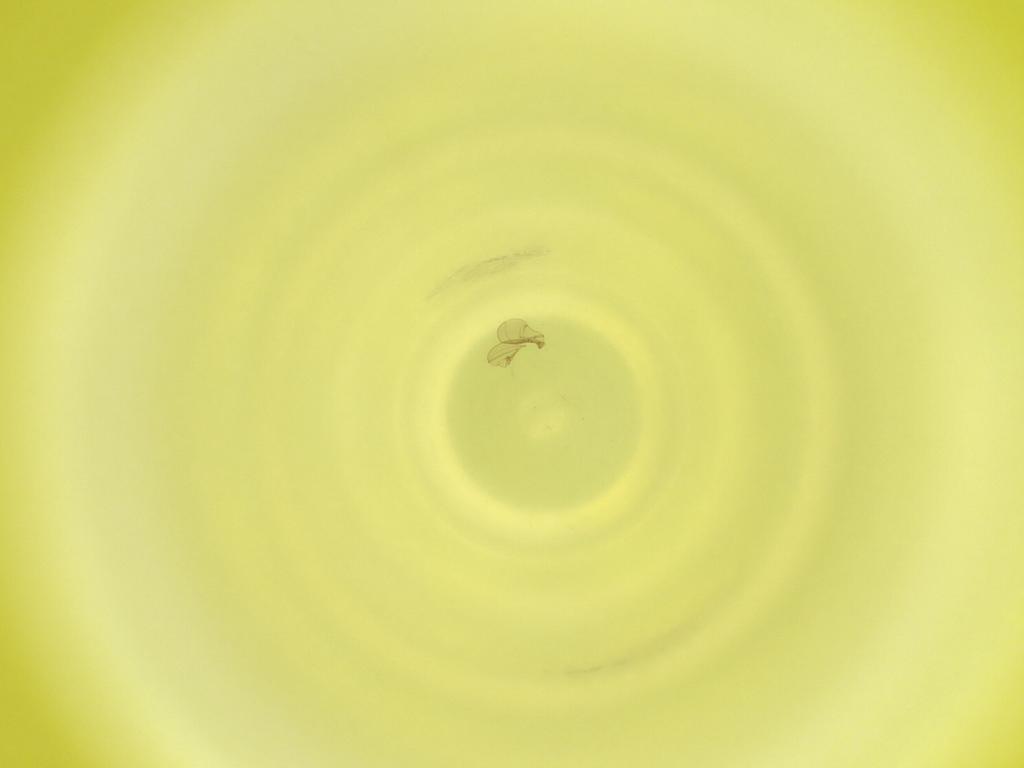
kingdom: Animalia
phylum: Arthropoda
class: Insecta
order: Diptera
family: Cecidomyiidae
